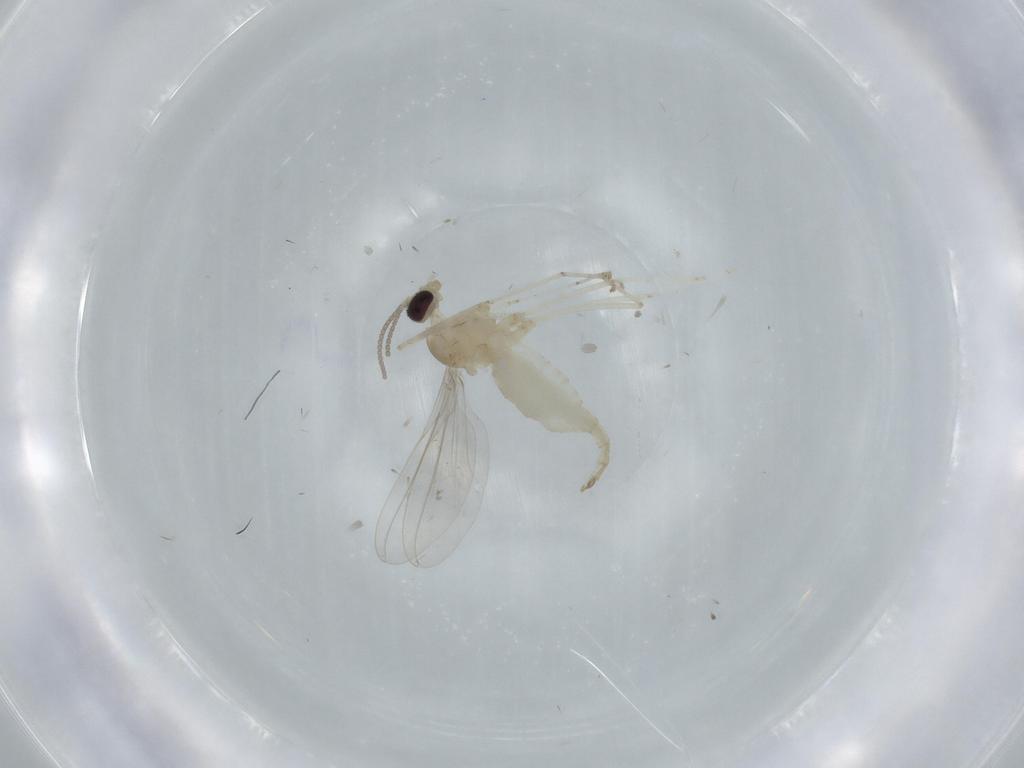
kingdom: Animalia
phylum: Arthropoda
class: Insecta
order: Diptera
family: Cecidomyiidae
